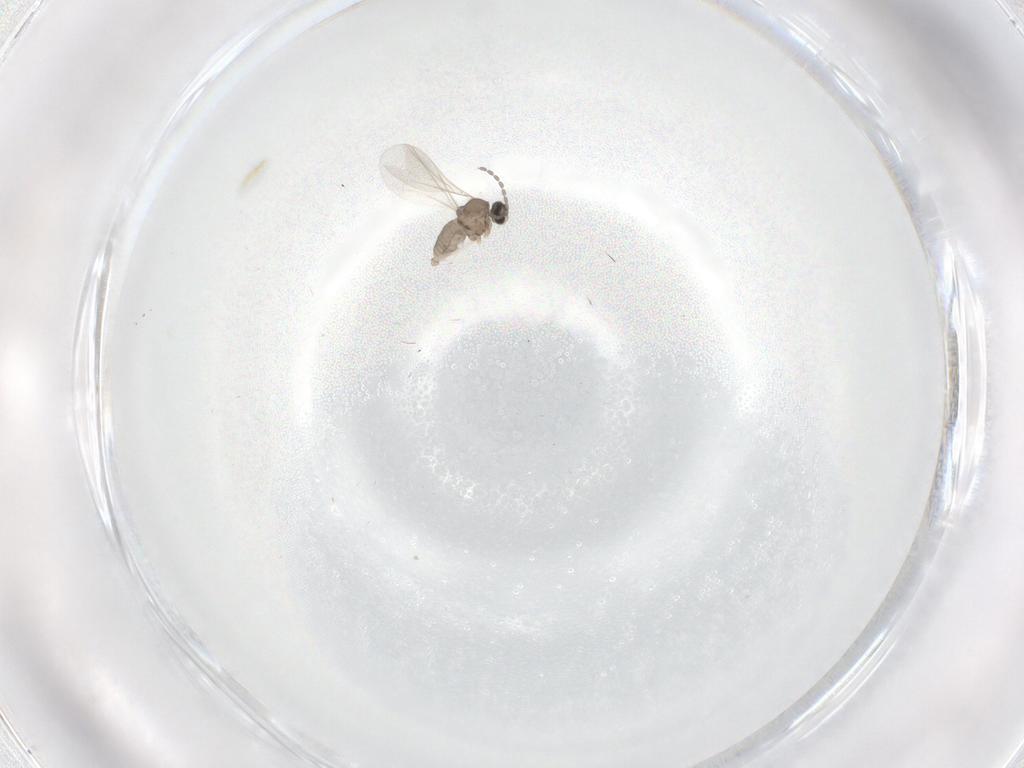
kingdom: Animalia
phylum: Arthropoda
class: Insecta
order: Diptera
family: Cecidomyiidae
